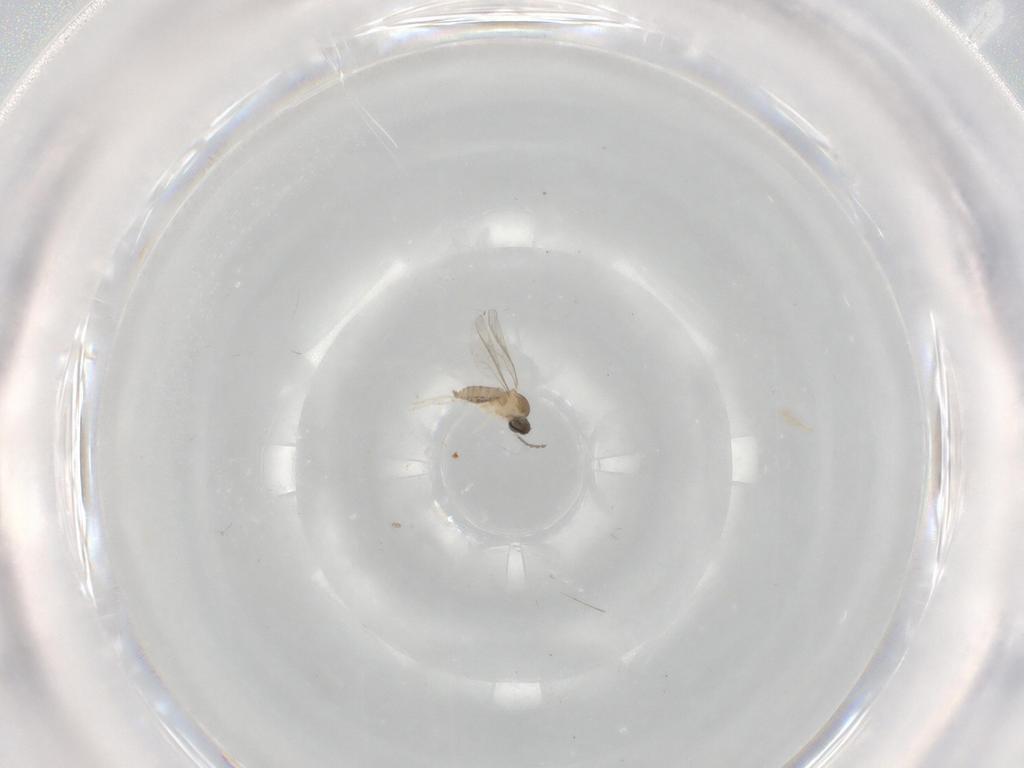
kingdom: Animalia
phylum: Arthropoda
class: Insecta
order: Diptera
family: Cecidomyiidae
